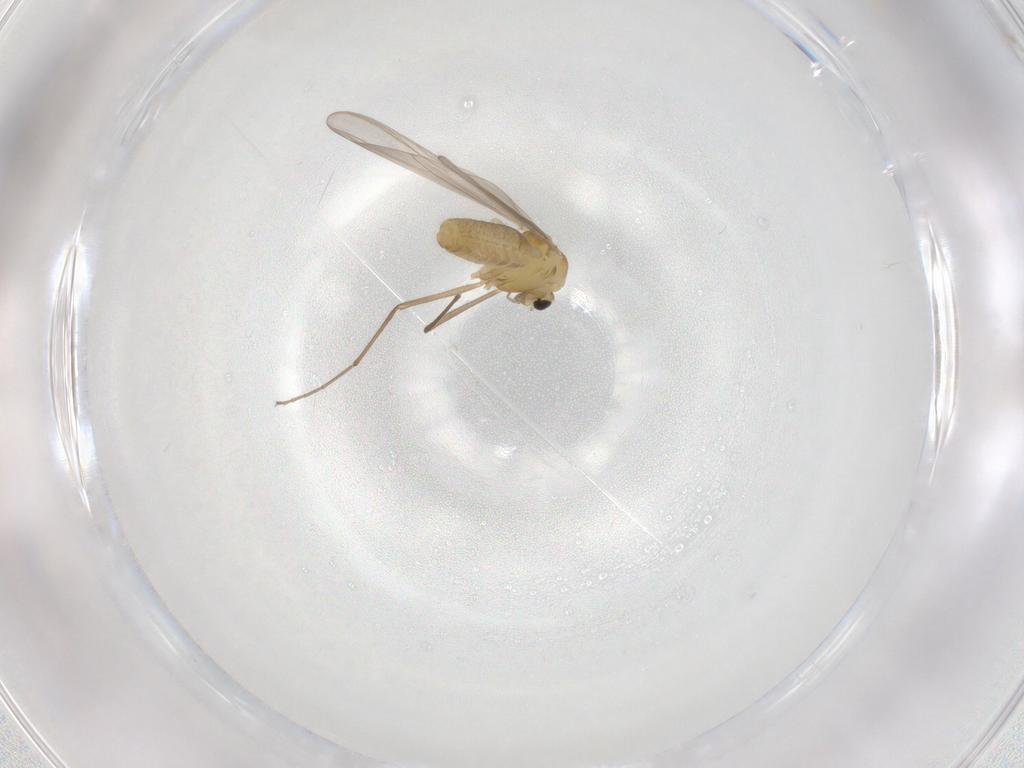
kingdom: Animalia
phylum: Arthropoda
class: Insecta
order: Diptera
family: Chironomidae
